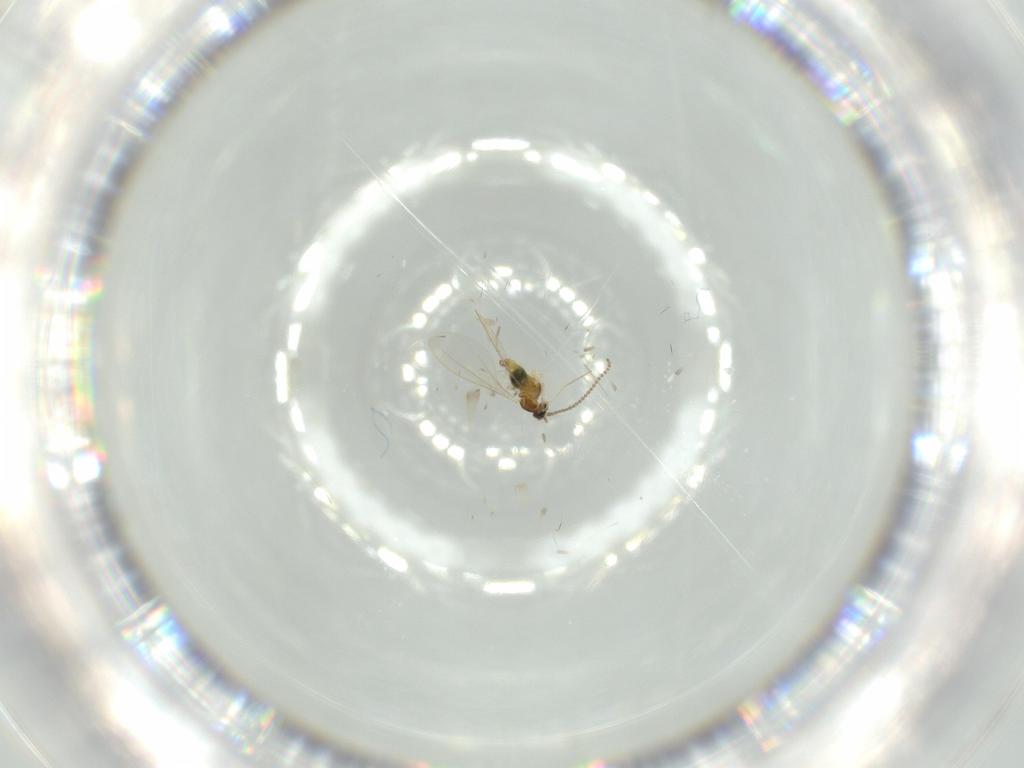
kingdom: Animalia
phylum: Arthropoda
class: Insecta
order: Diptera
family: Cecidomyiidae
